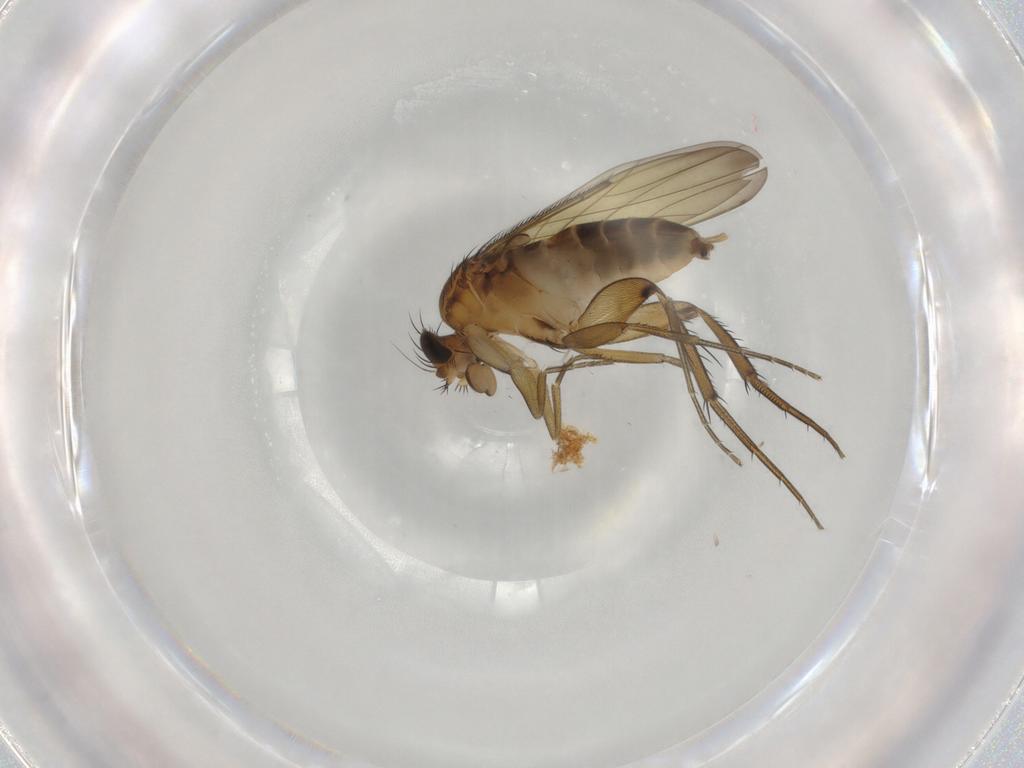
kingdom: Animalia
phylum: Arthropoda
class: Insecta
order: Diptera
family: Phoridae
